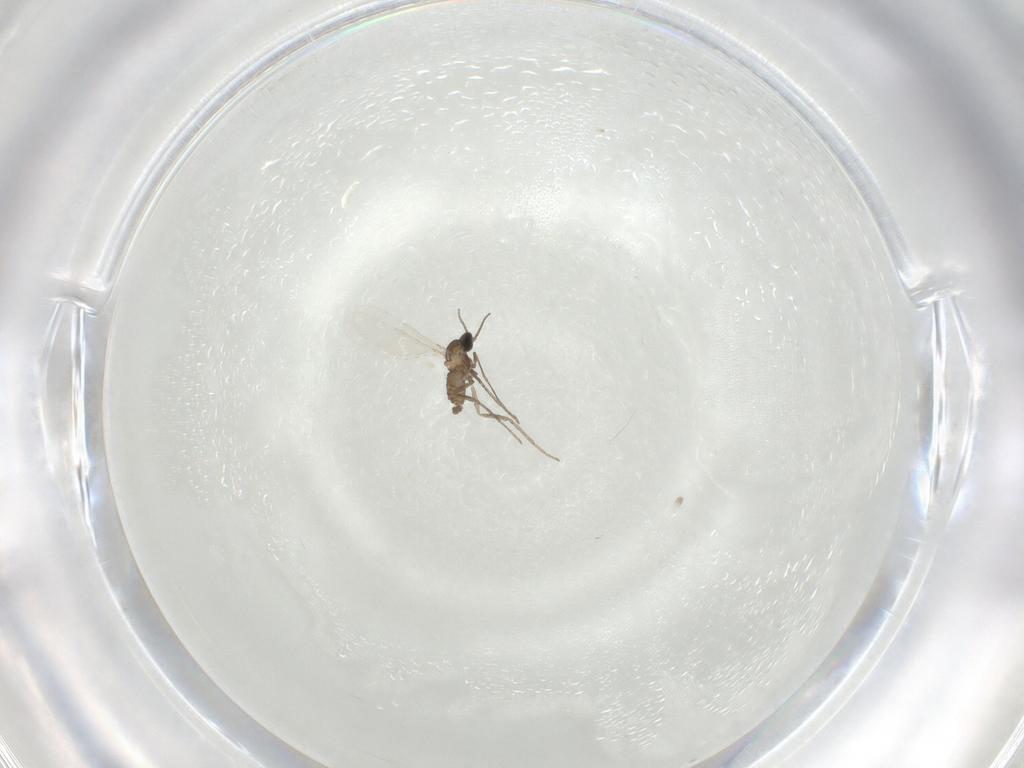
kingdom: Animalia
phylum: Arthropoda
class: Insecta
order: Diptera
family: Cecidomyiidae
